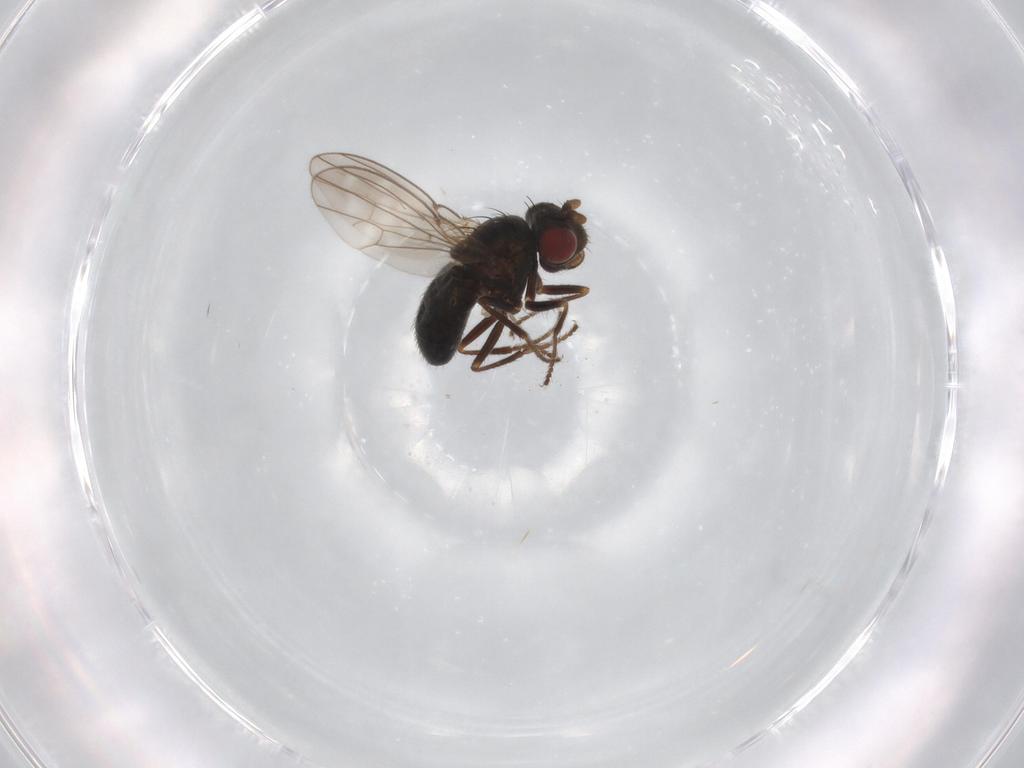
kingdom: Animalia
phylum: Arthropoda
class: Insecta
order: Diptera
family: Ephydridae
